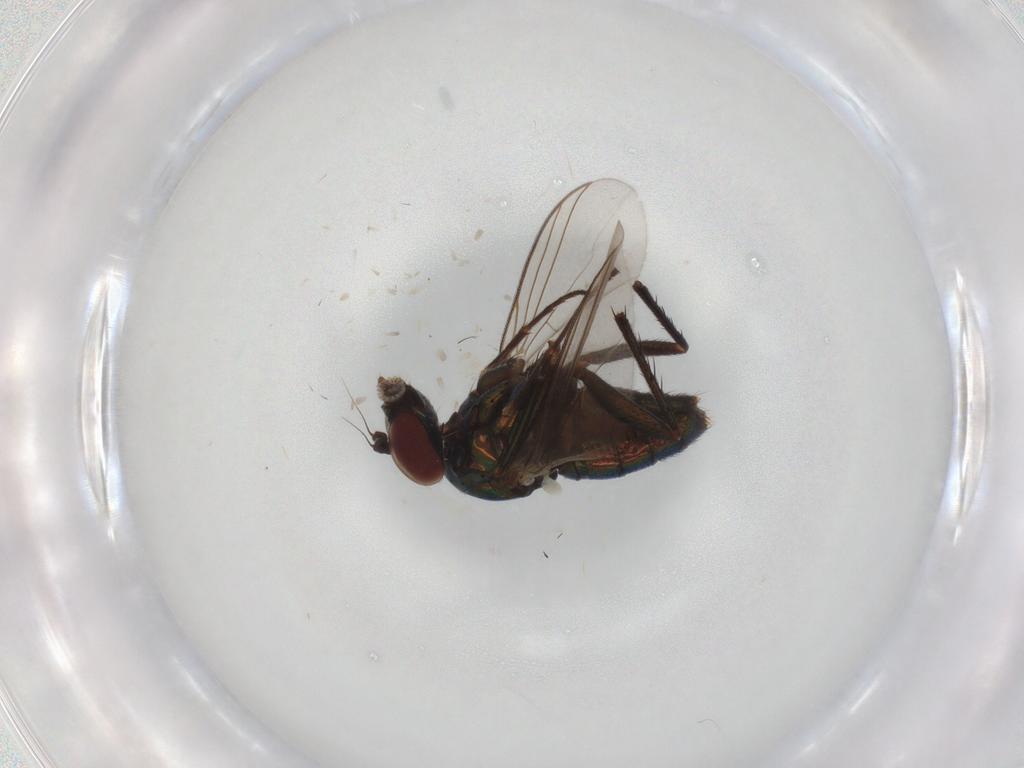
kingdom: Animalia
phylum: Arthropoda
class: Insecta
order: Diptera
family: Dolichopodidae
